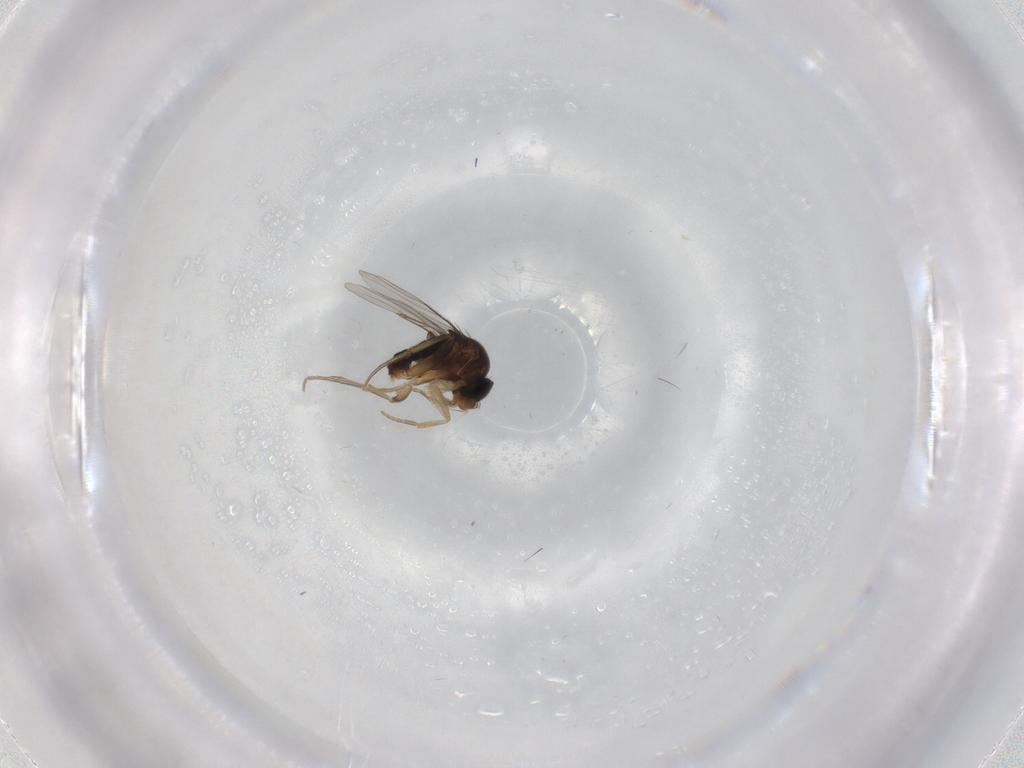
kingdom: Animalia
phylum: Arthropoda
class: Insecta
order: Diptera
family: Phoridae
